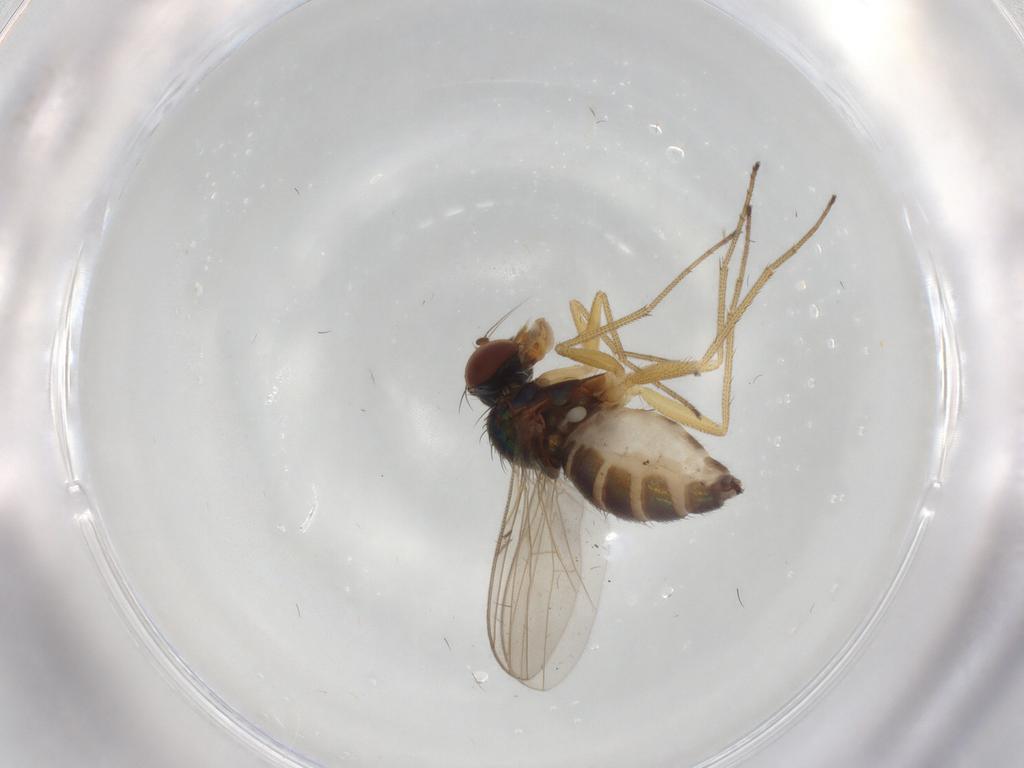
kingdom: Animalia
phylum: Arthropoda
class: Insecta
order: Diptera
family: Dolichopodidae
